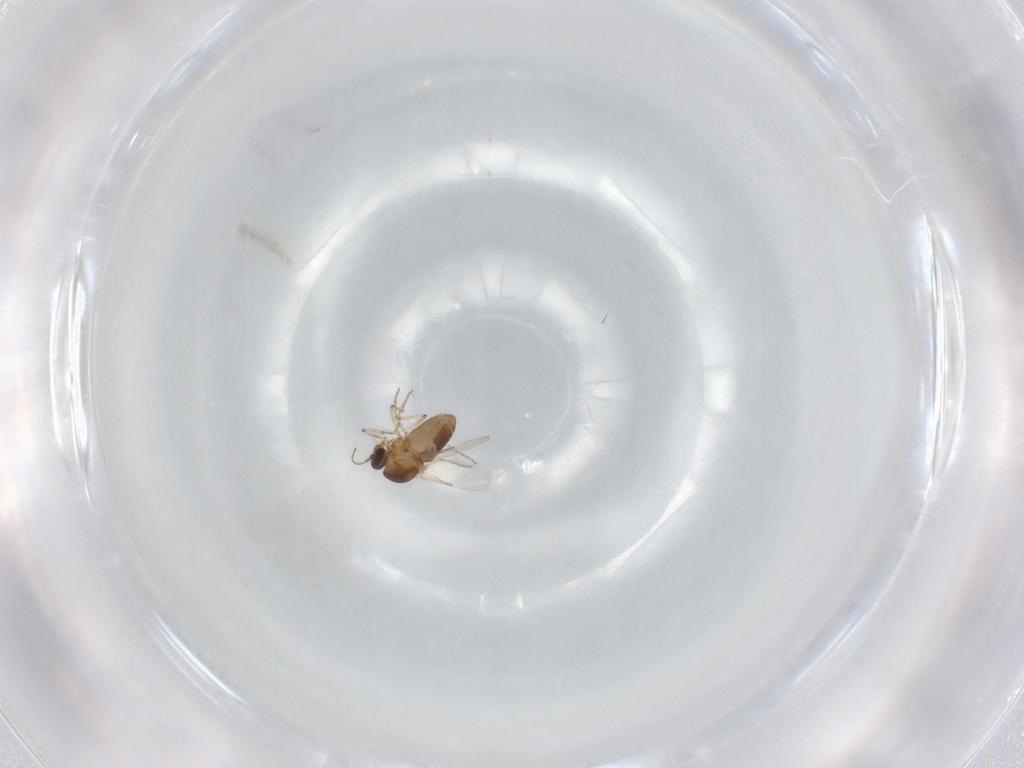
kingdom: Animalia
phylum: Arthropoda
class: Insecta
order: Diptera
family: Ceratopogonidae
